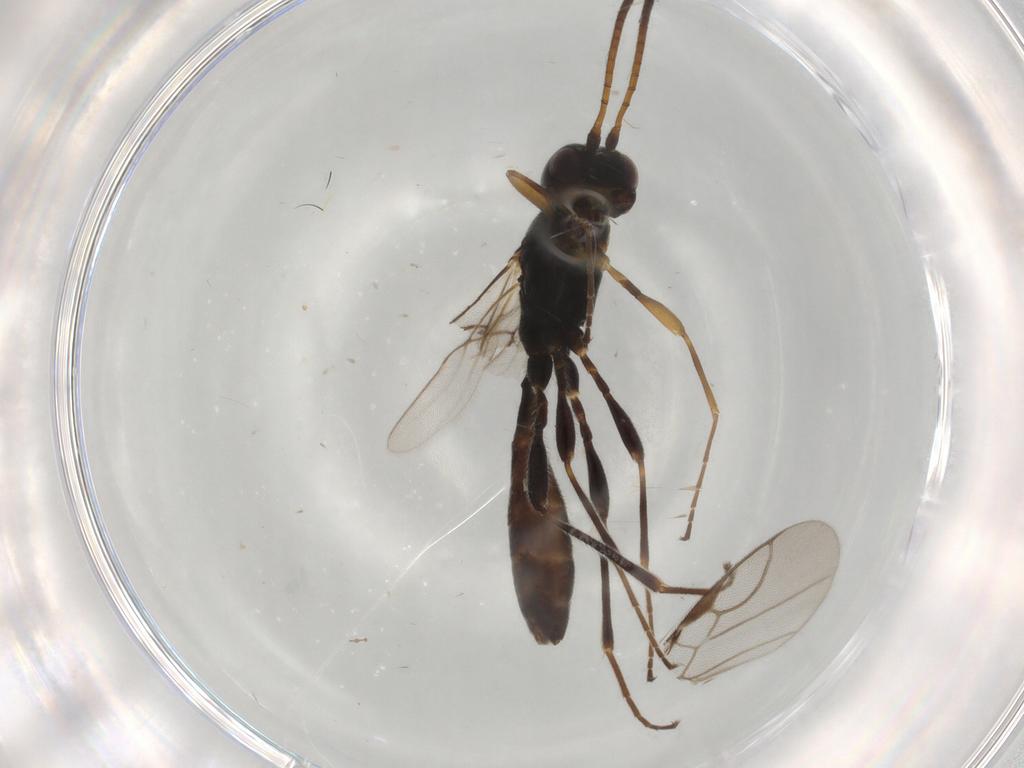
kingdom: Animalia
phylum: Arthropoda
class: Insecta
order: Hymenoptera
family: Braconidae
